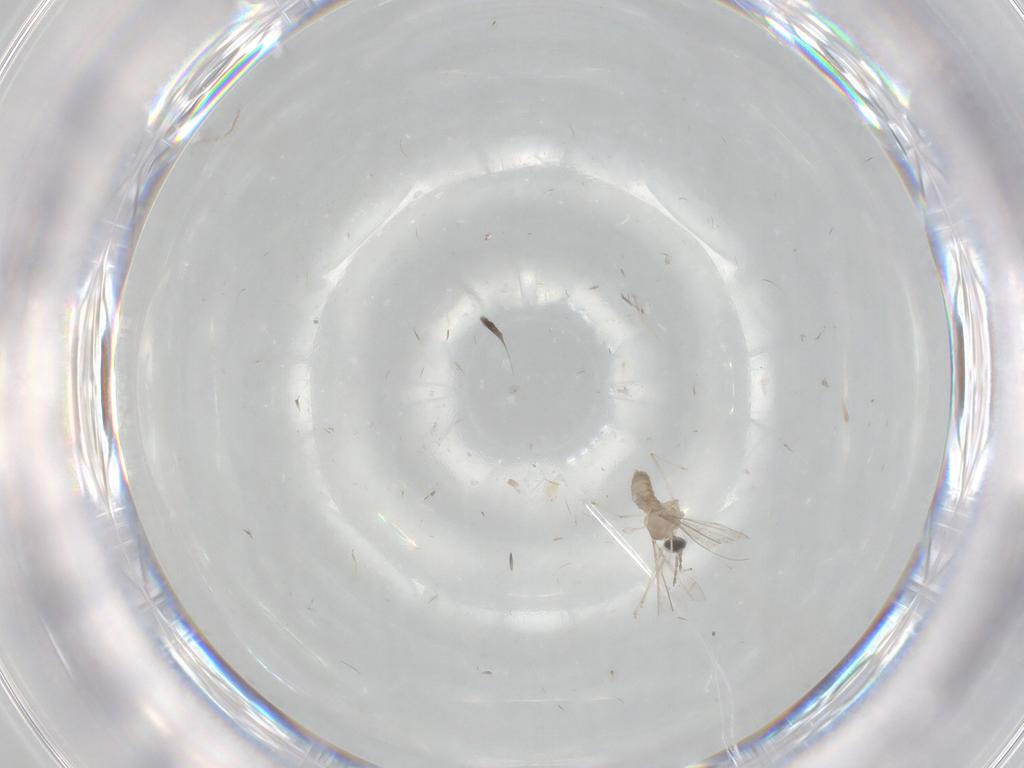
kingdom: Animalia
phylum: Arthropoda
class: Insecta
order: Diptera
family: Cecidomyiidae
